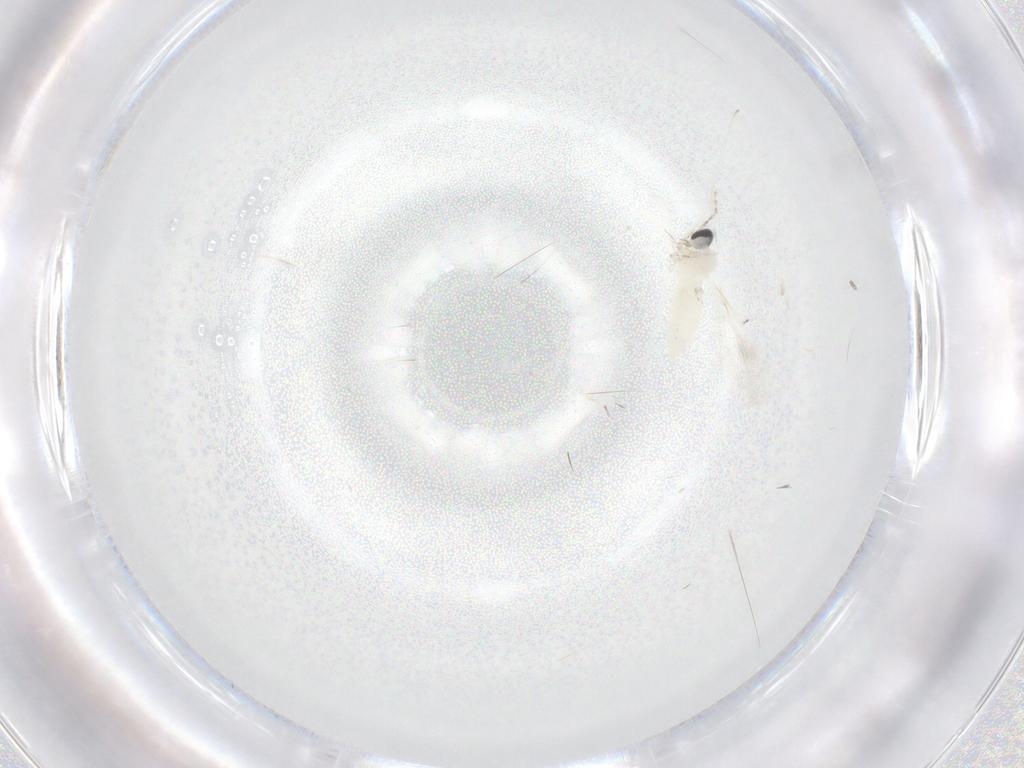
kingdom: Animalia
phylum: Arthropoda
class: Insecta
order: Diptera
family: Cecidomyiidae
